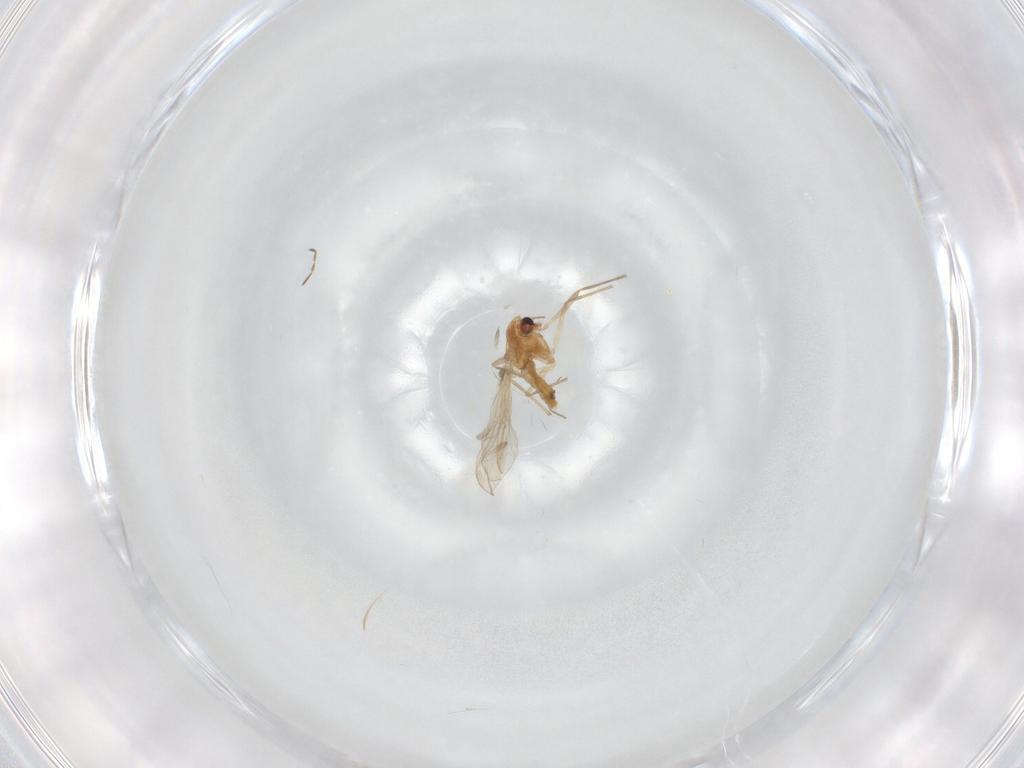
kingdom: Animalia
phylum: Arthropoda
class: Insecta
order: Diptera
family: Chironomidae
